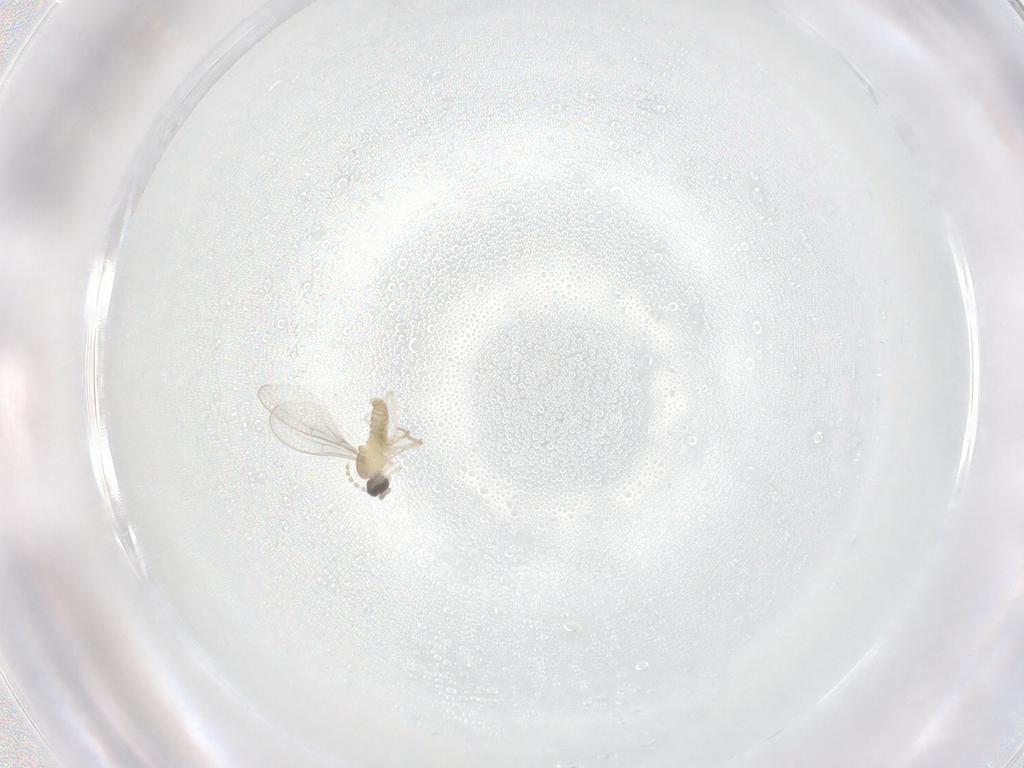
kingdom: Animalia
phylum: Arthropoda
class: Insecta
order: Diptera
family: Cecidomyiidae
